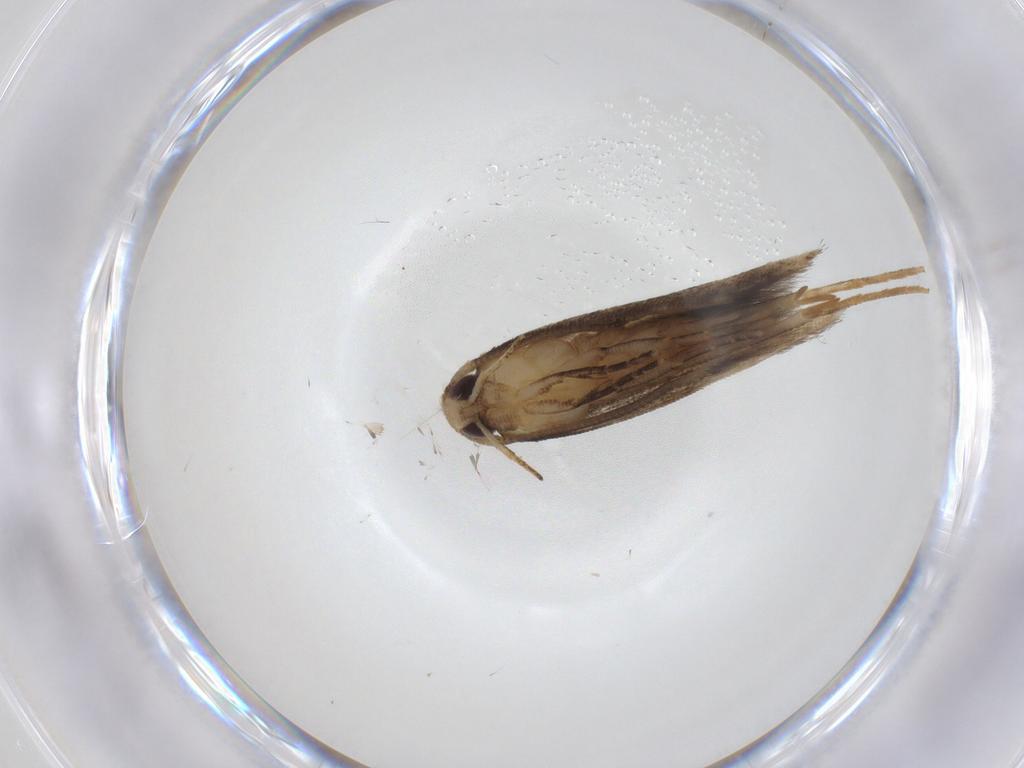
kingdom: Animalia
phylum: Arthropoda
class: Insecta
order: Lepidoptera
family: Cosmopterigidae
